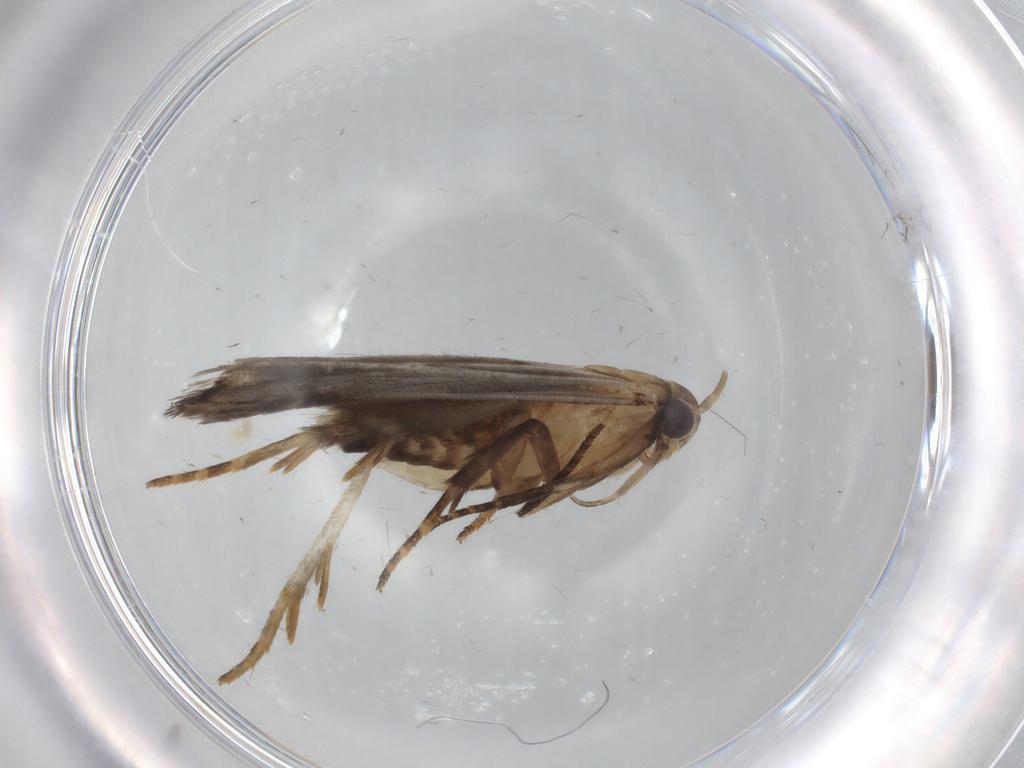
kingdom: Animalia
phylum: Arthropoda
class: Insecta
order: Lepidoptera
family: Gelechiidae
